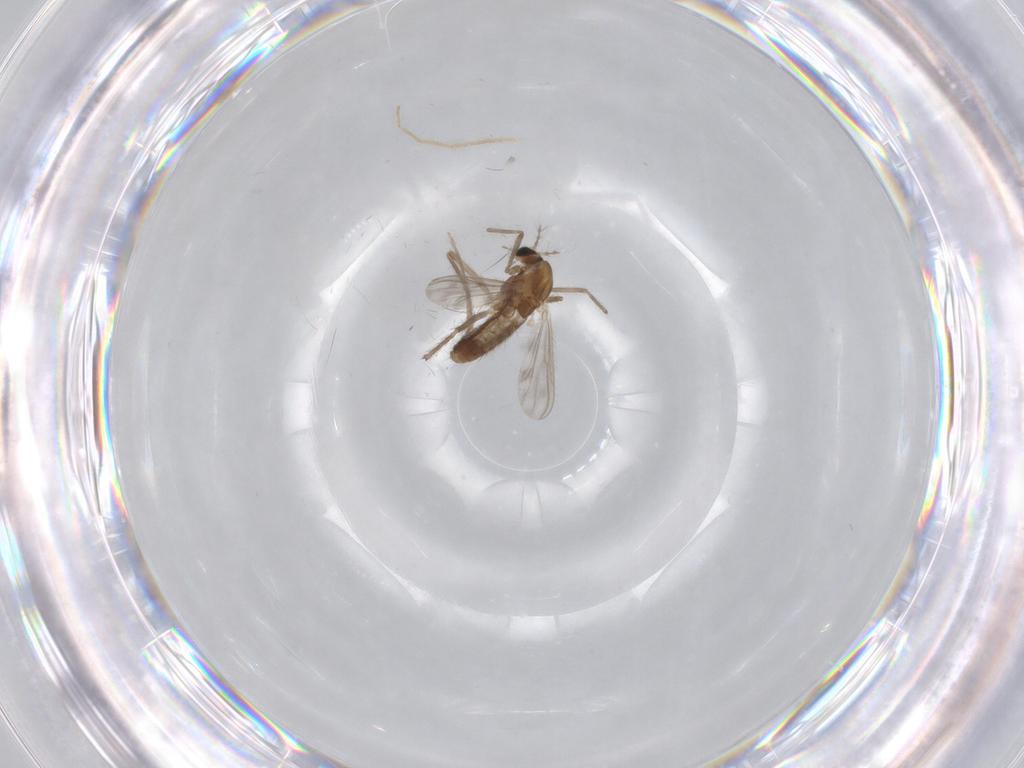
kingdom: Animalia
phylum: Arthropoda
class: Insecta
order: Diptera
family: Chironomidae
